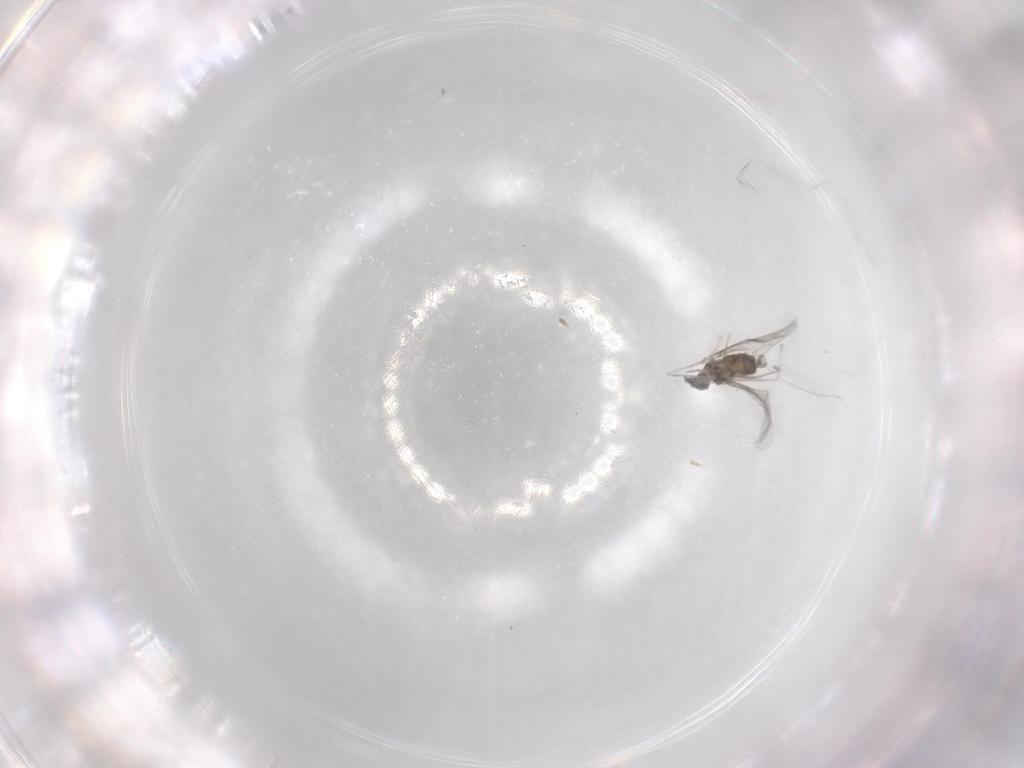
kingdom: Animalia
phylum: Arthropoda
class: Insecta
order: Diptera
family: Cecidomyiidae
